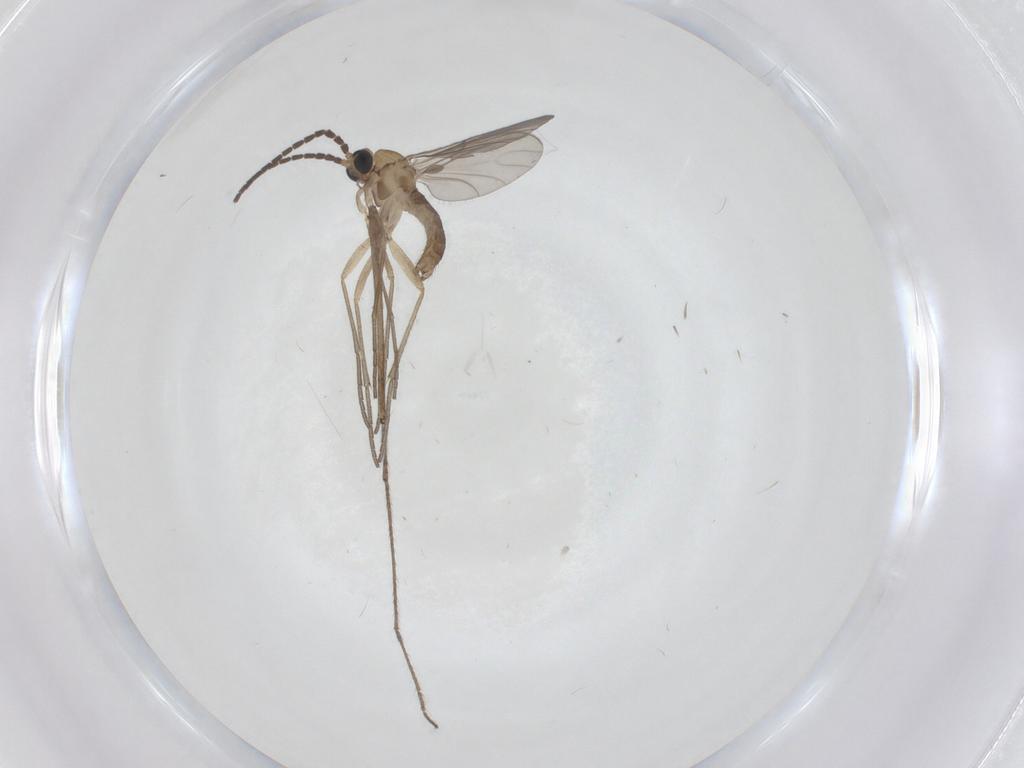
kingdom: Animalia
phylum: Arthropoda
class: Insecta
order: Diptera
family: Sciaridae
